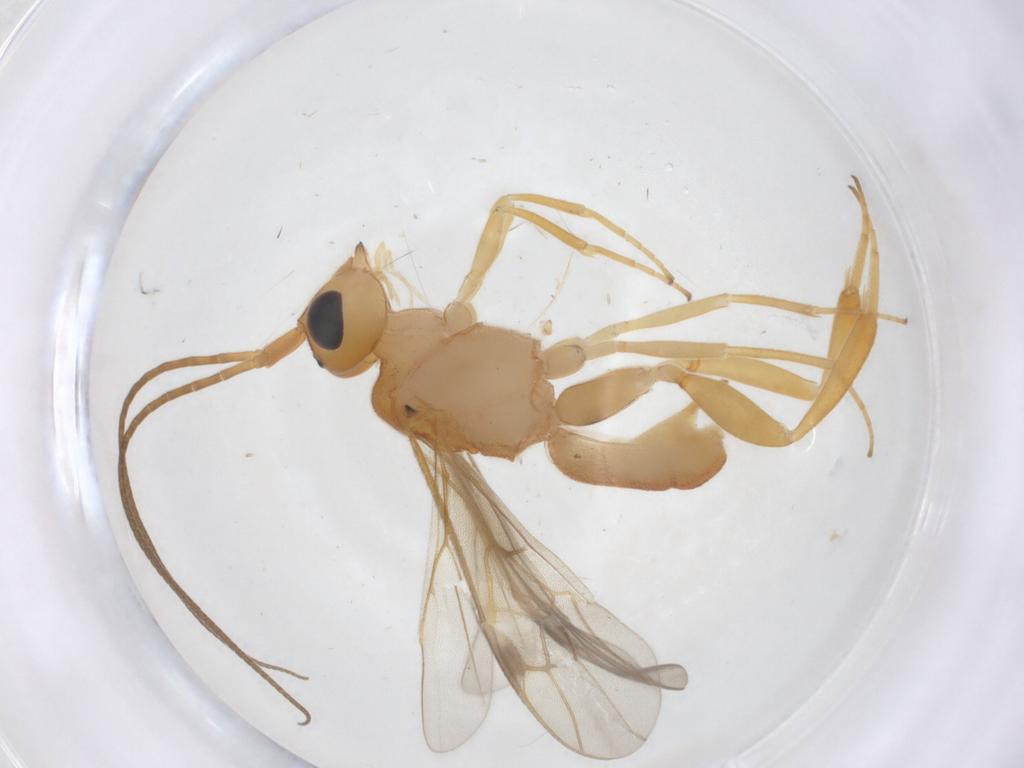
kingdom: Animalia
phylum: Arthropoda
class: Insecta
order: Hymenoptera
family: Braconidae
